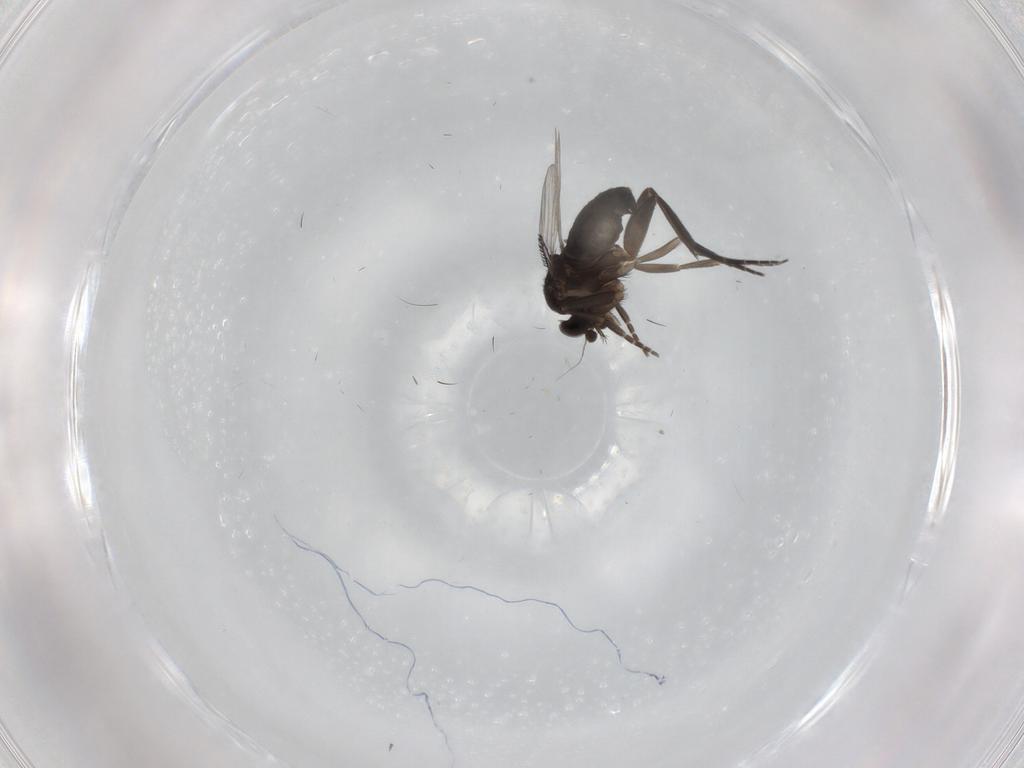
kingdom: Animalia
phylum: Arthropoda
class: Insecta
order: Diptera
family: Phoridae
